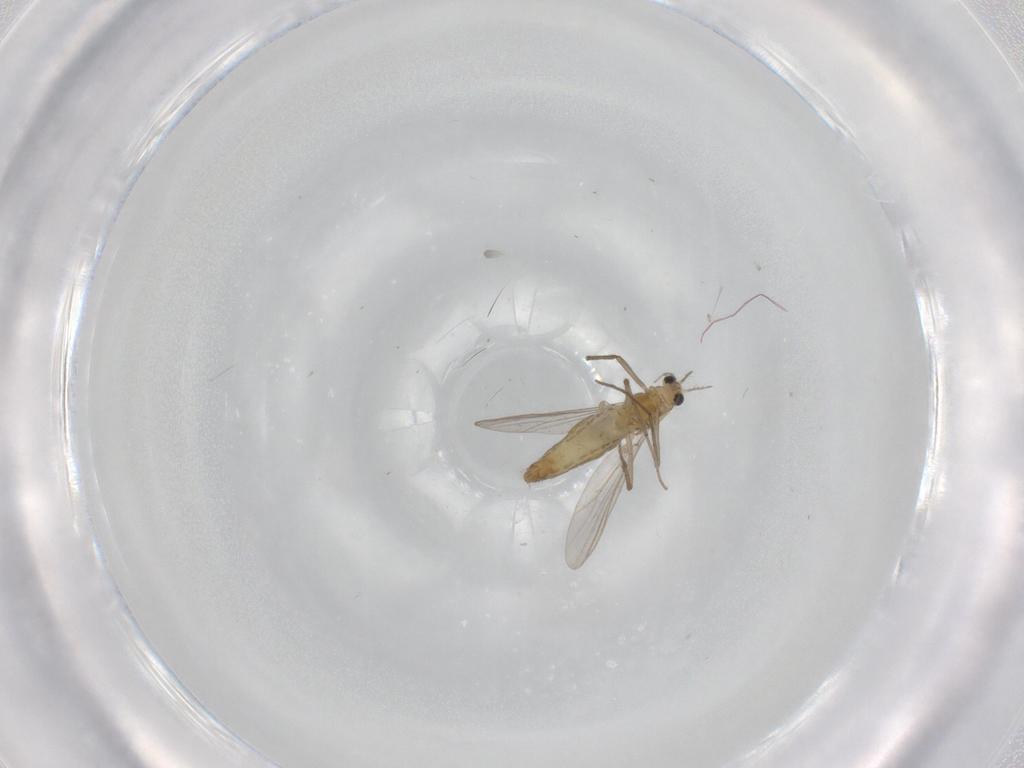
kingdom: Animalia
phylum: Arthropoda
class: Insecta
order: Diptera
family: Chironomidae
